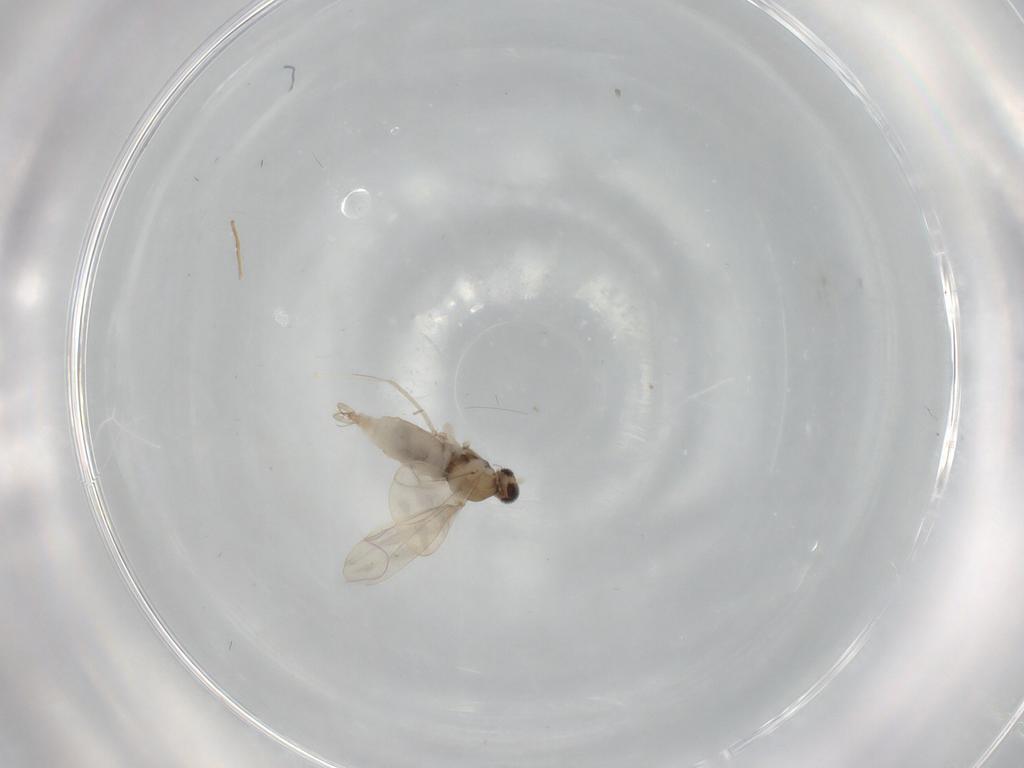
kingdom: Animalia
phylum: Arthropoda
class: Insecta
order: Diptera
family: Cecidomyiidae
